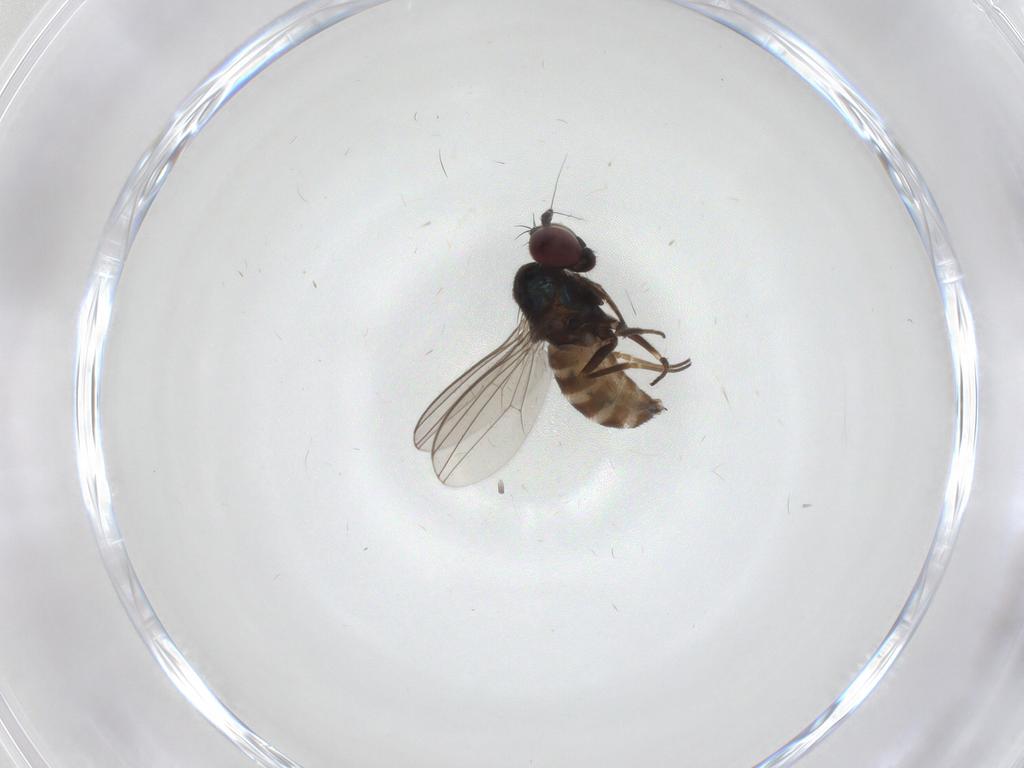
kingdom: Animalia
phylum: Arthropoda
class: Insecta
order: Diptera
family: Dolichopodidae
